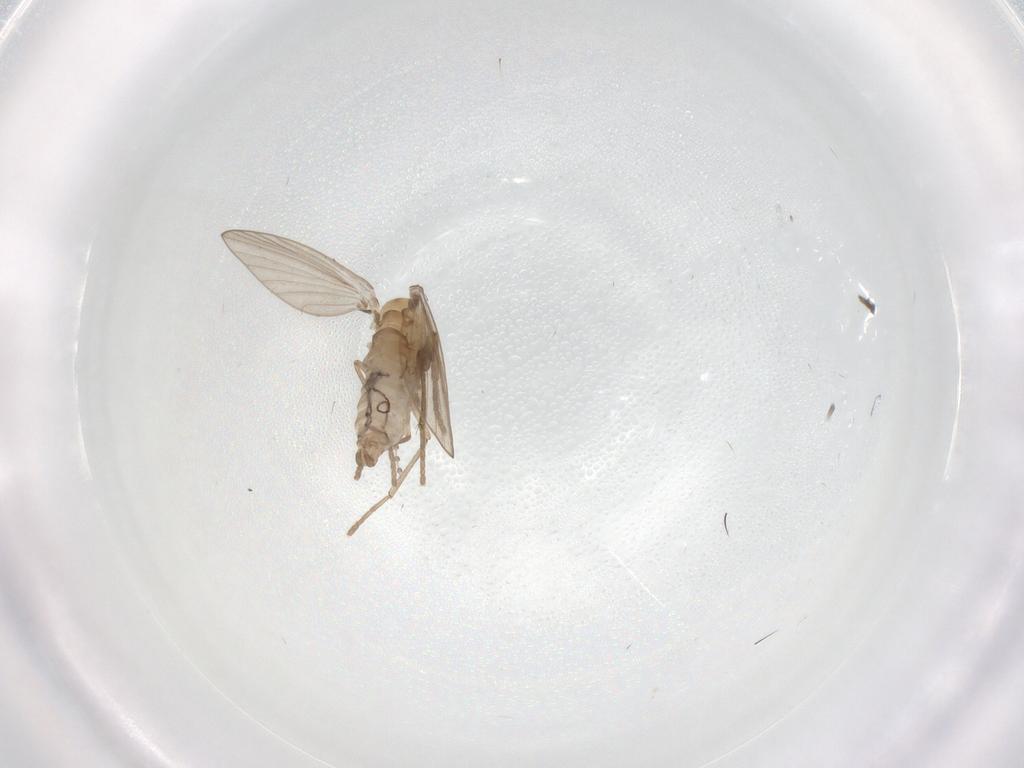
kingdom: Animalia
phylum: Arthropoda
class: Insecta
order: Diptera
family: Psychodidae
